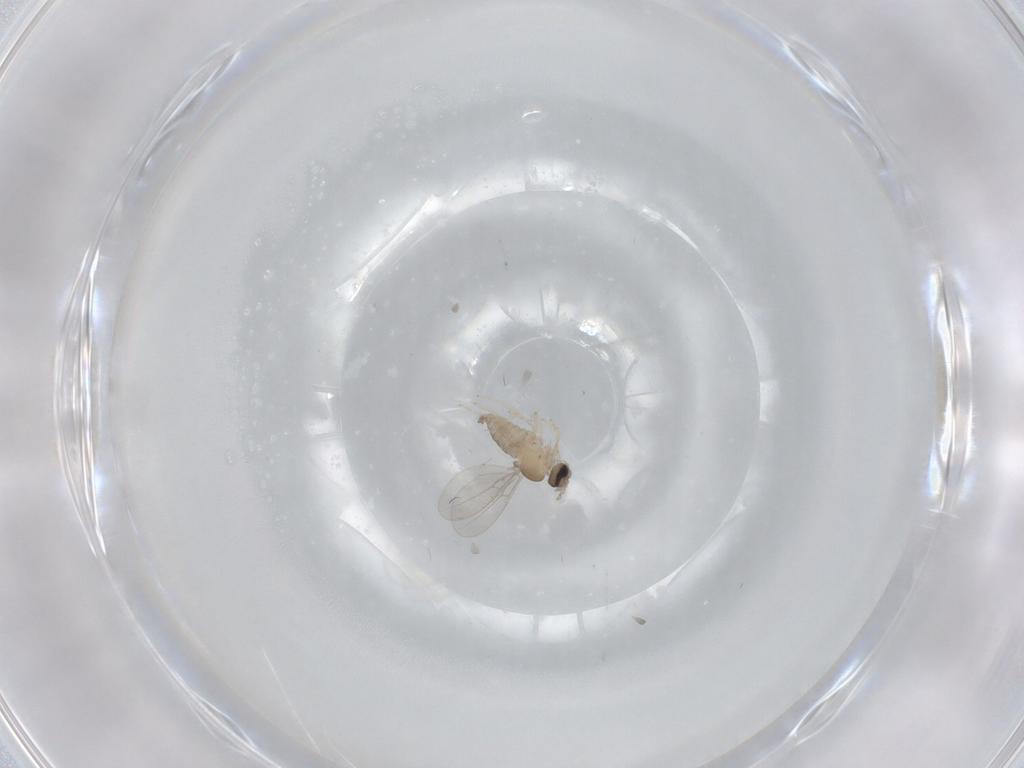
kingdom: Animalia
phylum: Arthropoda
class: Insecta
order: Diptera
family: Cecidomyiidae
